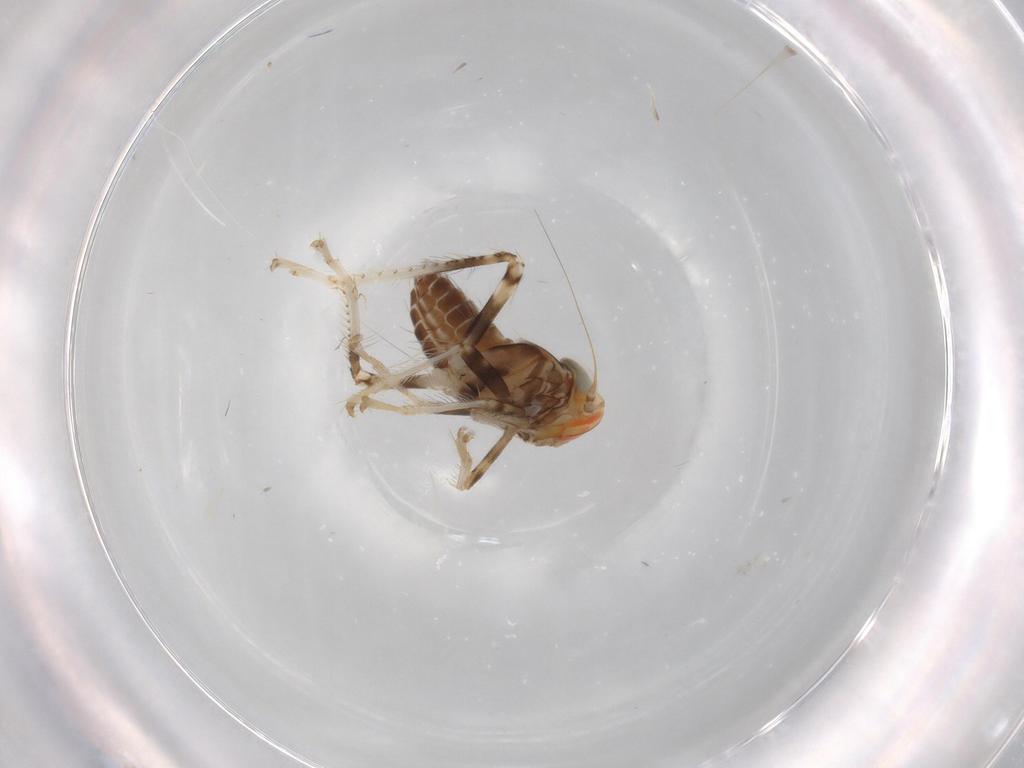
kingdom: Animalia
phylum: Arthropoda
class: Insecta
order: Hemiptera
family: Cicadellidae
